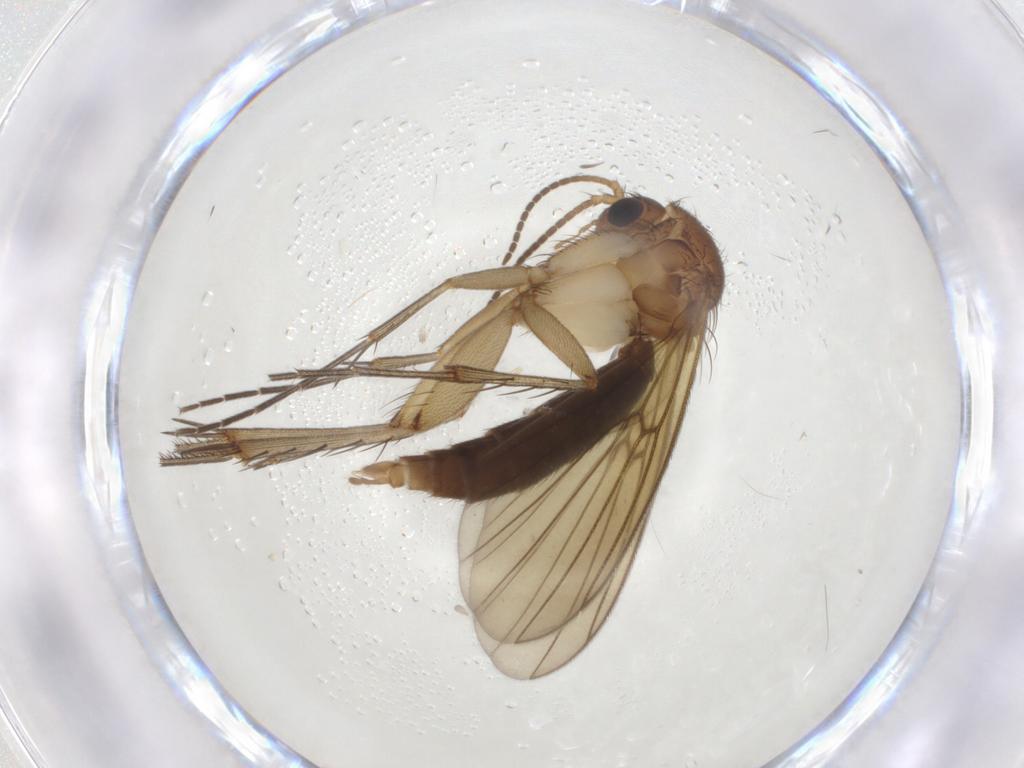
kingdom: Animalia
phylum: Arthropoda
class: Insecta
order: Diptera
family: Mycetophilidae
